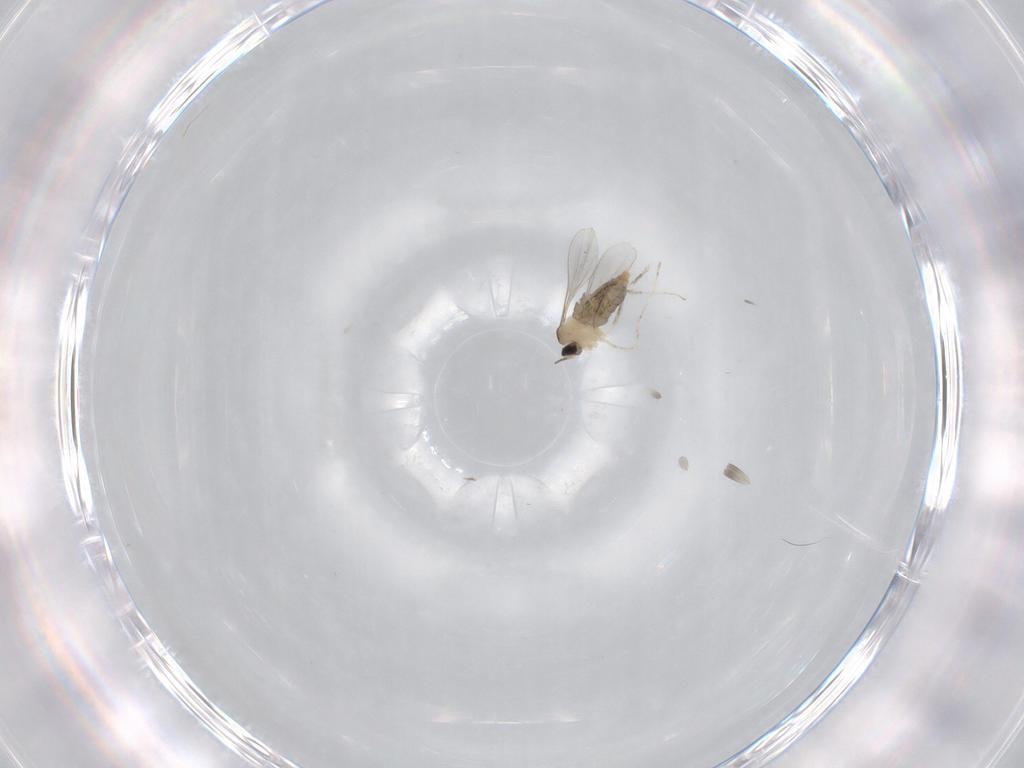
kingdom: Animalia
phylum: Arthropoda
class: Insecta
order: Diptera
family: Cecidomyiidae
